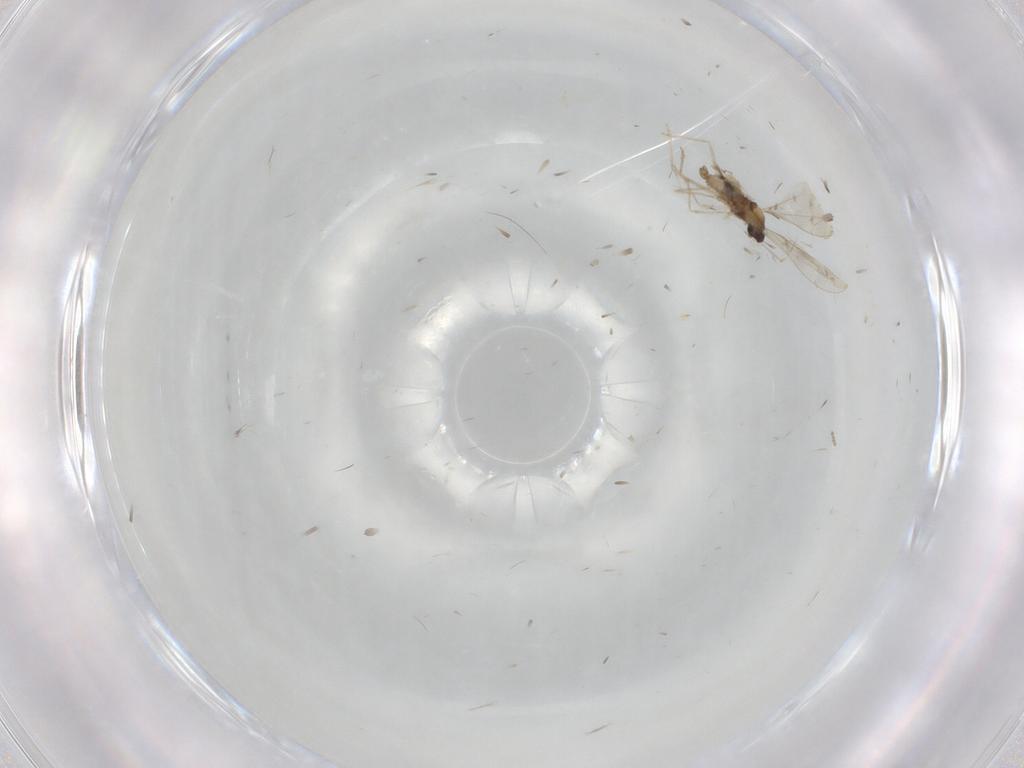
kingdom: Animalia
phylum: Arthropoda
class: Insecta
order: Diptera
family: Cecidomyiidae
